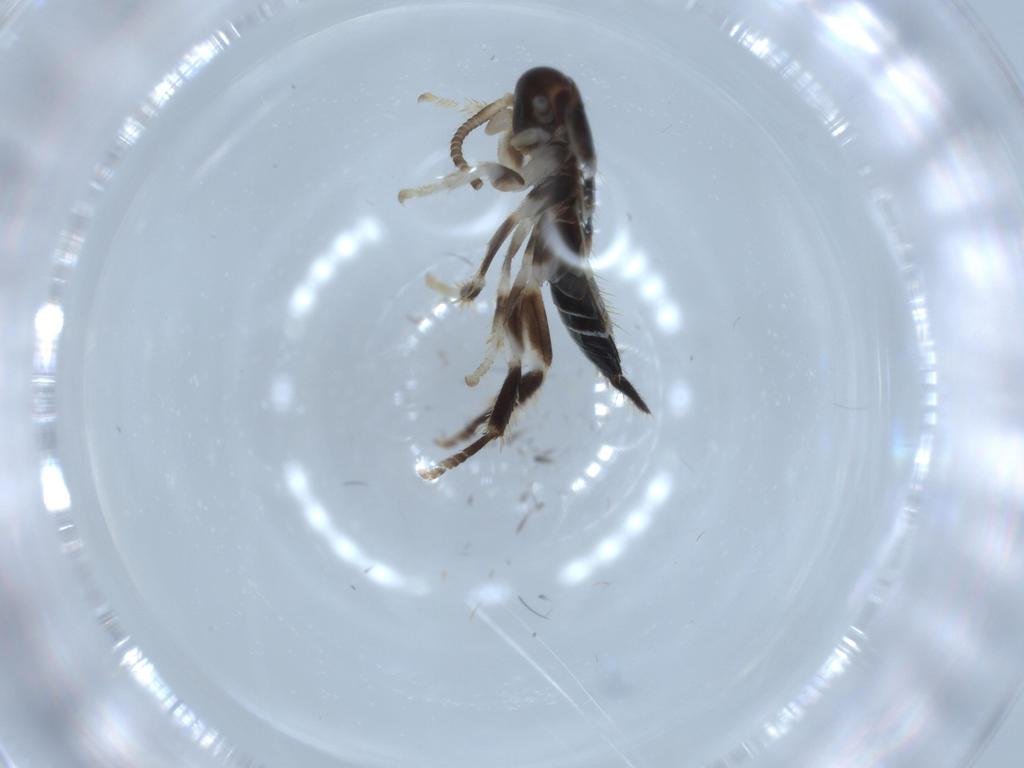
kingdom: Animalia
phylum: Arthropoda
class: Insecta
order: Blattodea
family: Ectobiidae
